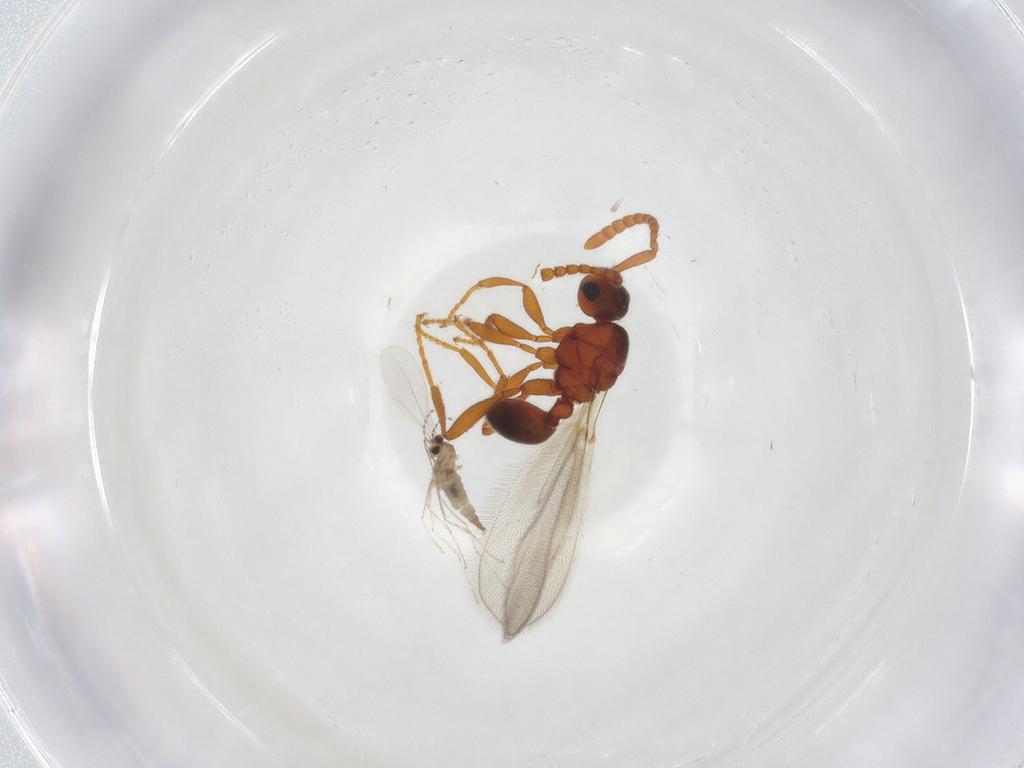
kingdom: Animalia
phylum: Arthropoda
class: Insecta
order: Diptera
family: Cecidomyiidae
